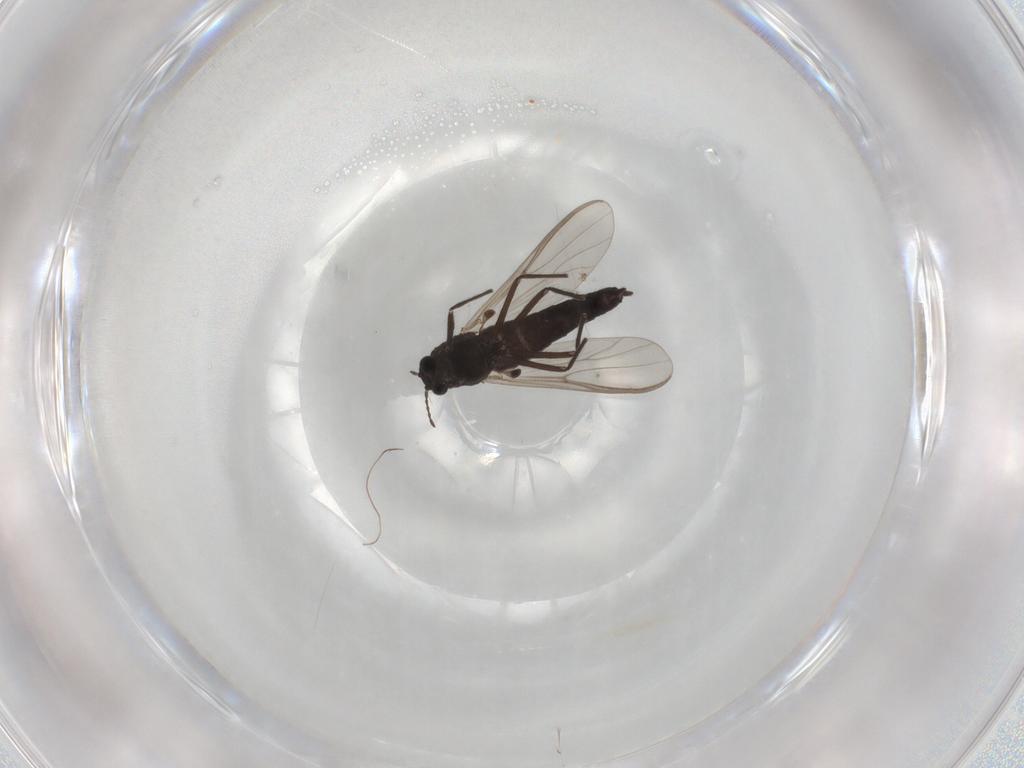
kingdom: Animalia
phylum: Arthropoda
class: Insecta
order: Diptera
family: Chironomidae
